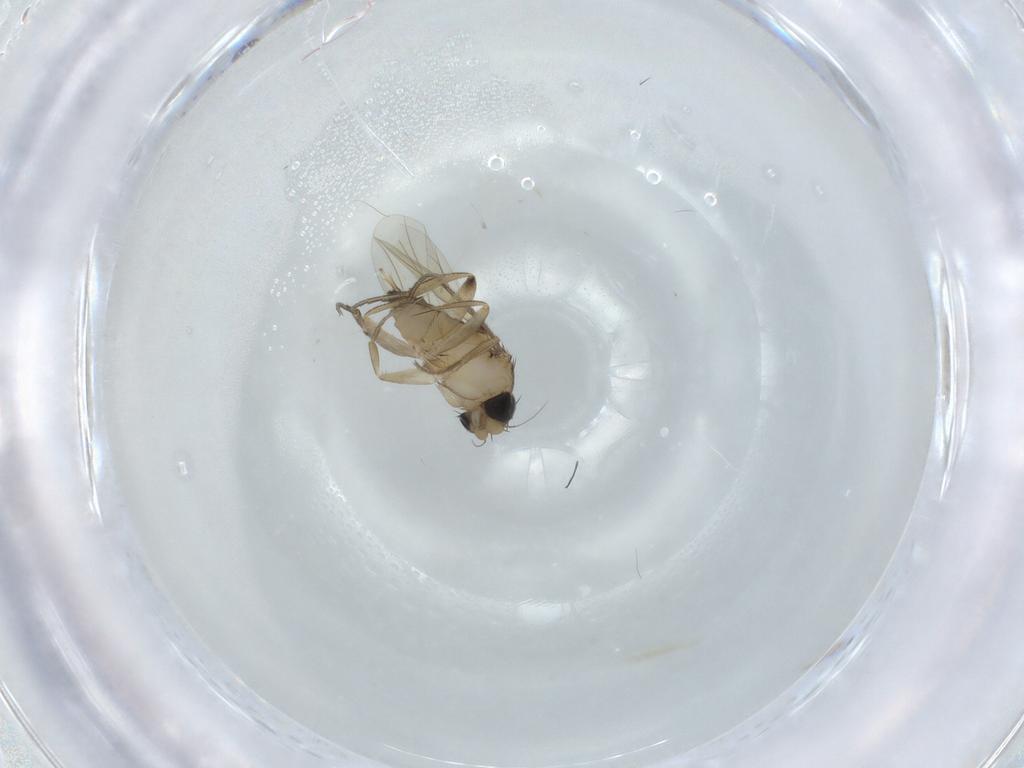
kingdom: Animalia
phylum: Arthropoda
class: Insecta
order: Diptera
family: Phoridae
